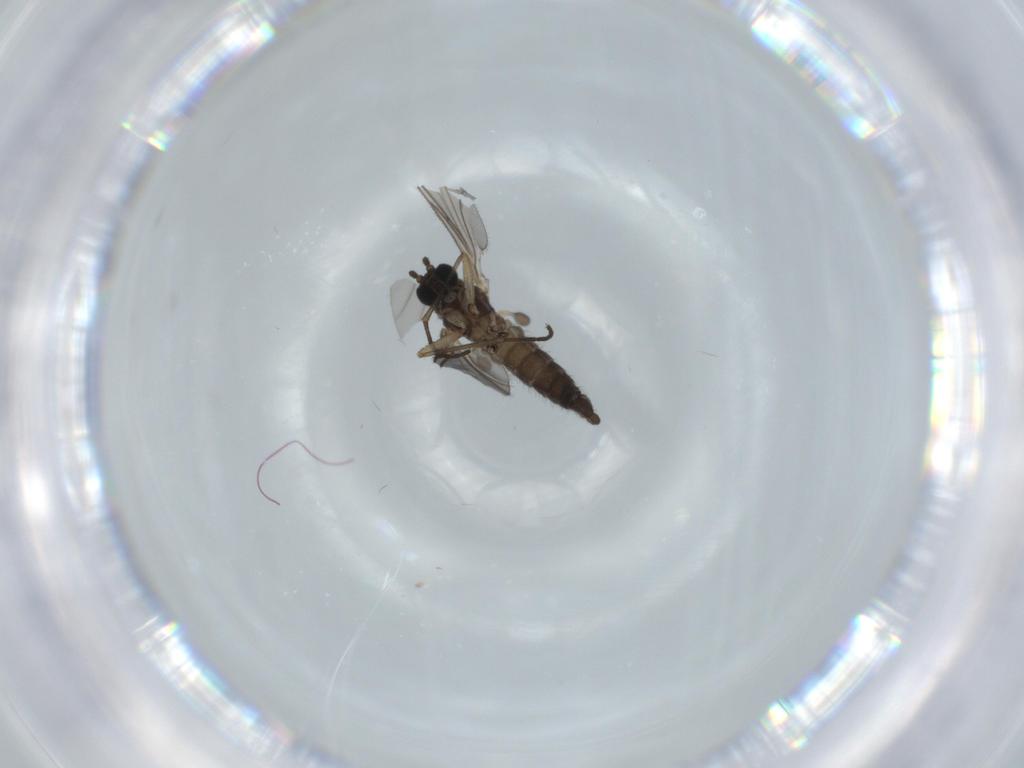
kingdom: Animalia
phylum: Arthropoda
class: Insecta
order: Diptera
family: Sciaridae
